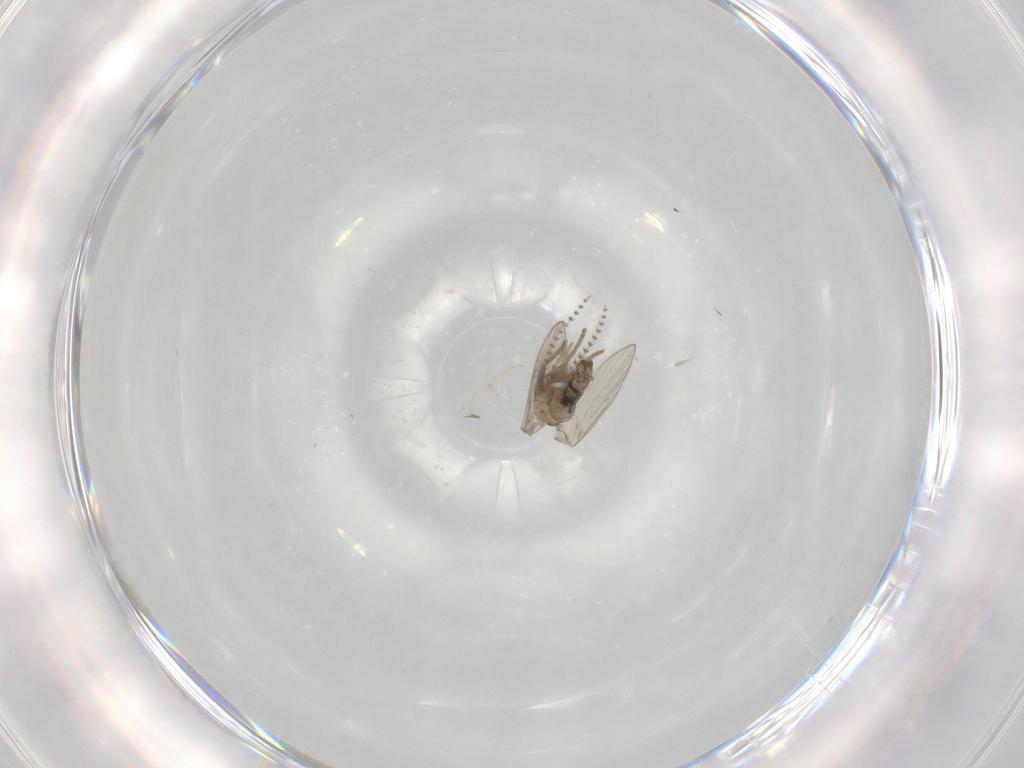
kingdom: Animalia
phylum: Arthropoda
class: Insecta
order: Diptera
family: Psychodidae
